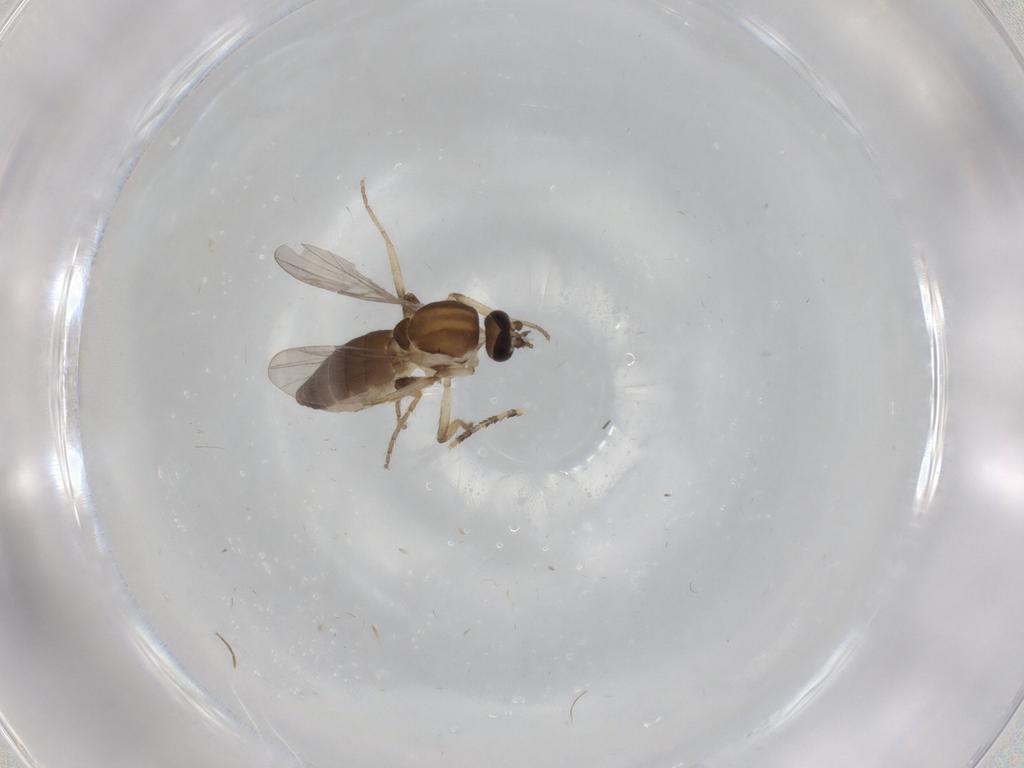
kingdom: Animalia
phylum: Arthropoda
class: Insecta
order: Diptera
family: Ceratopogonidae
